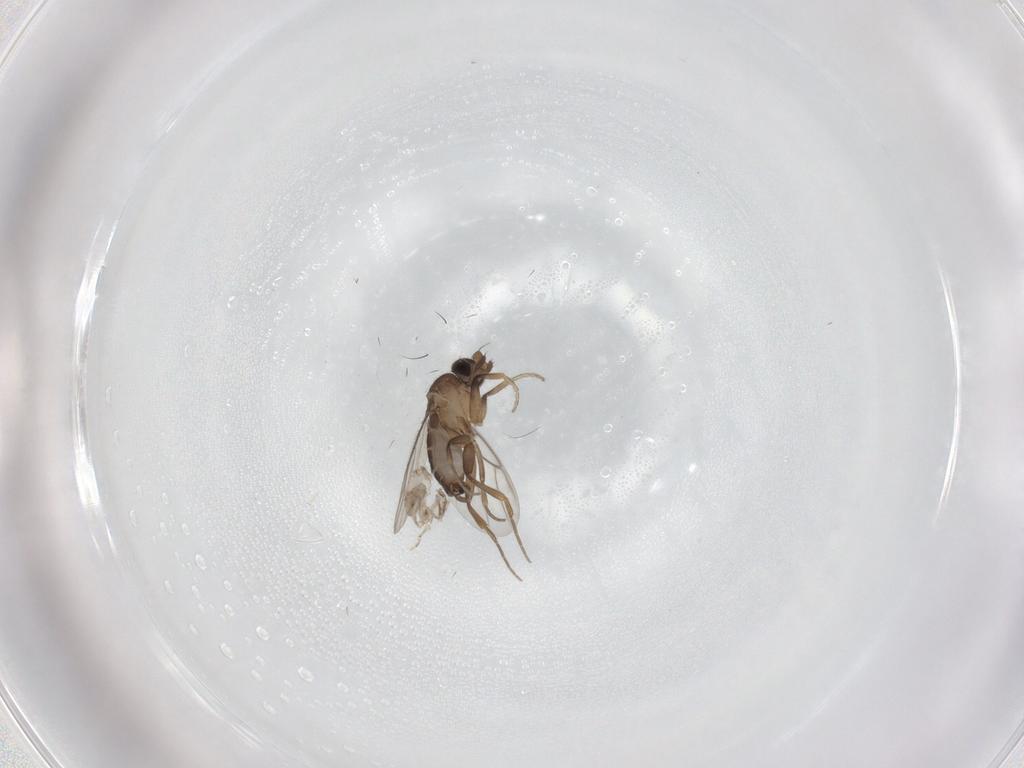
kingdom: Animalia
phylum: Arthropoda
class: Insecta
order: Diptera
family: Cecidomyiidae
